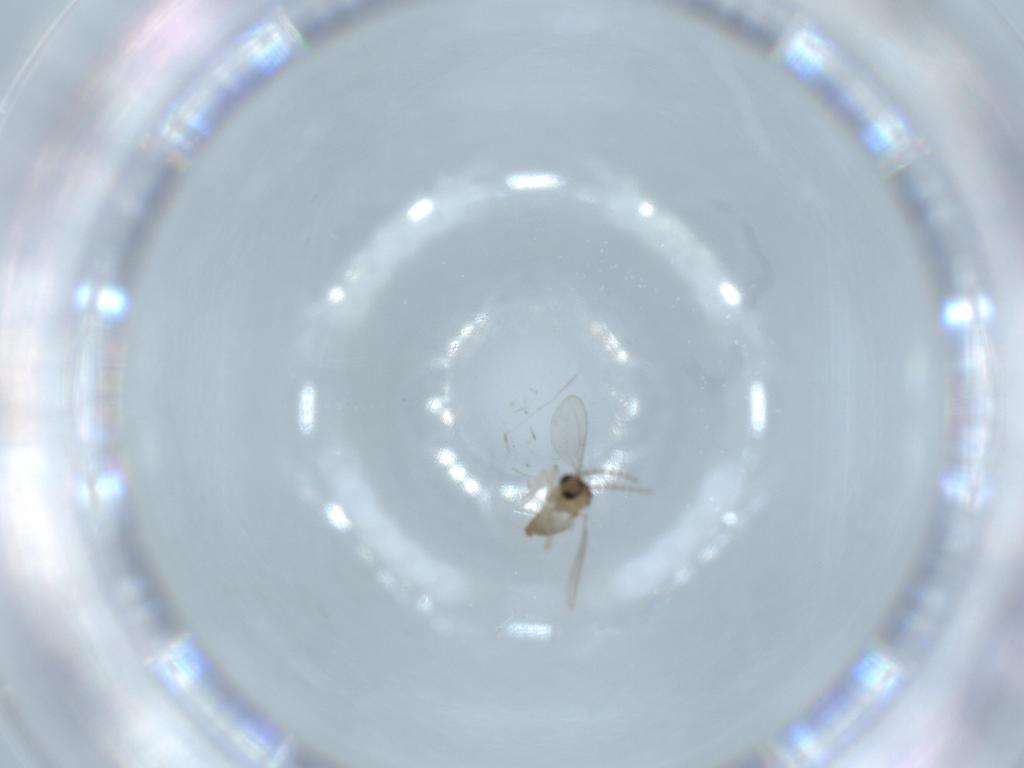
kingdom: Animalia
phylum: Arthropoda
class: Insecta
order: Diptera
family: Cecidomyiidae
